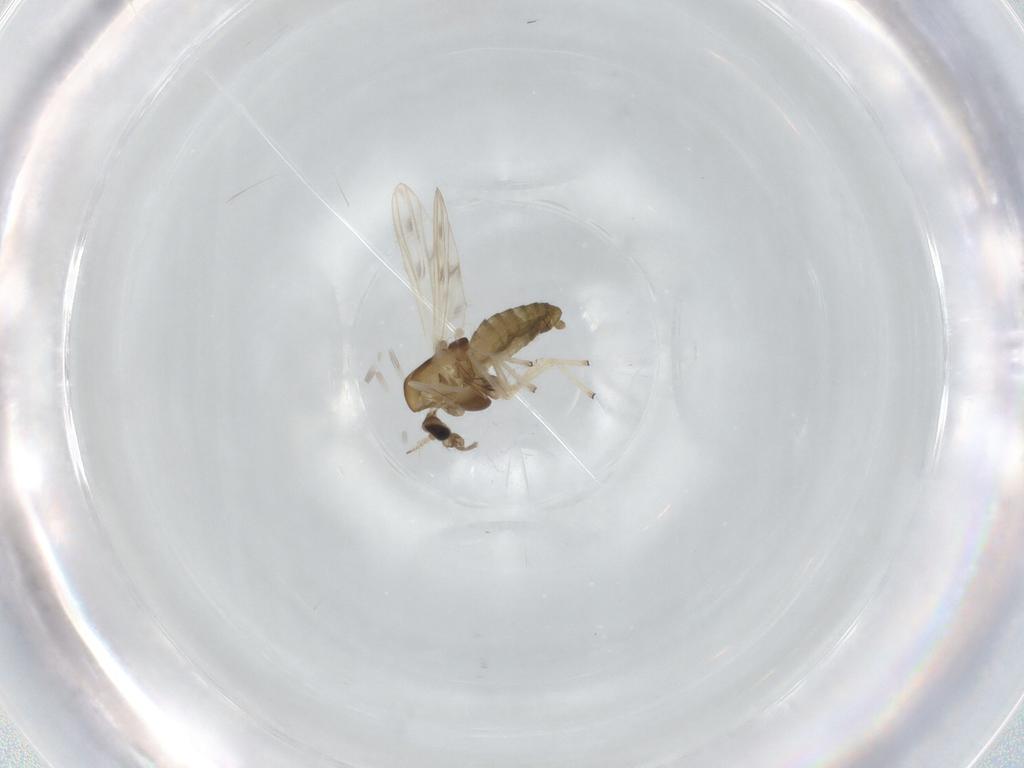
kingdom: Animalia
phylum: Arthropoda
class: Insecta
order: Diptera
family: Chironomidae
